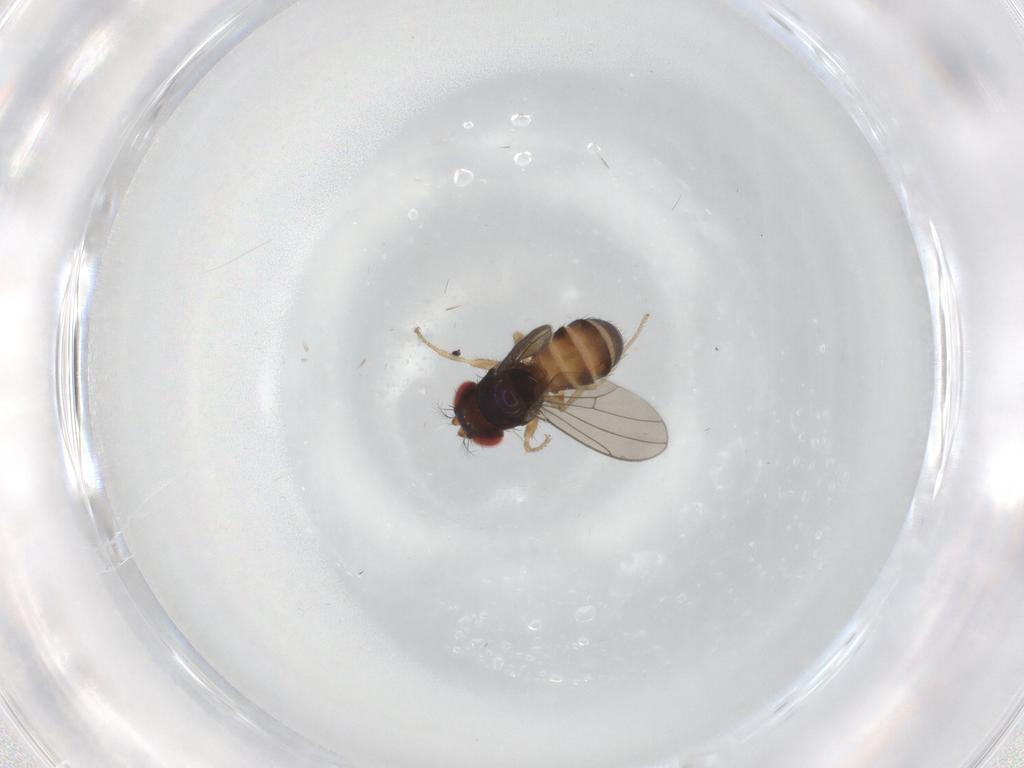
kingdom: Animalia
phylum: Arthropoda
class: Insecta
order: Diptera
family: Drosophilidae
